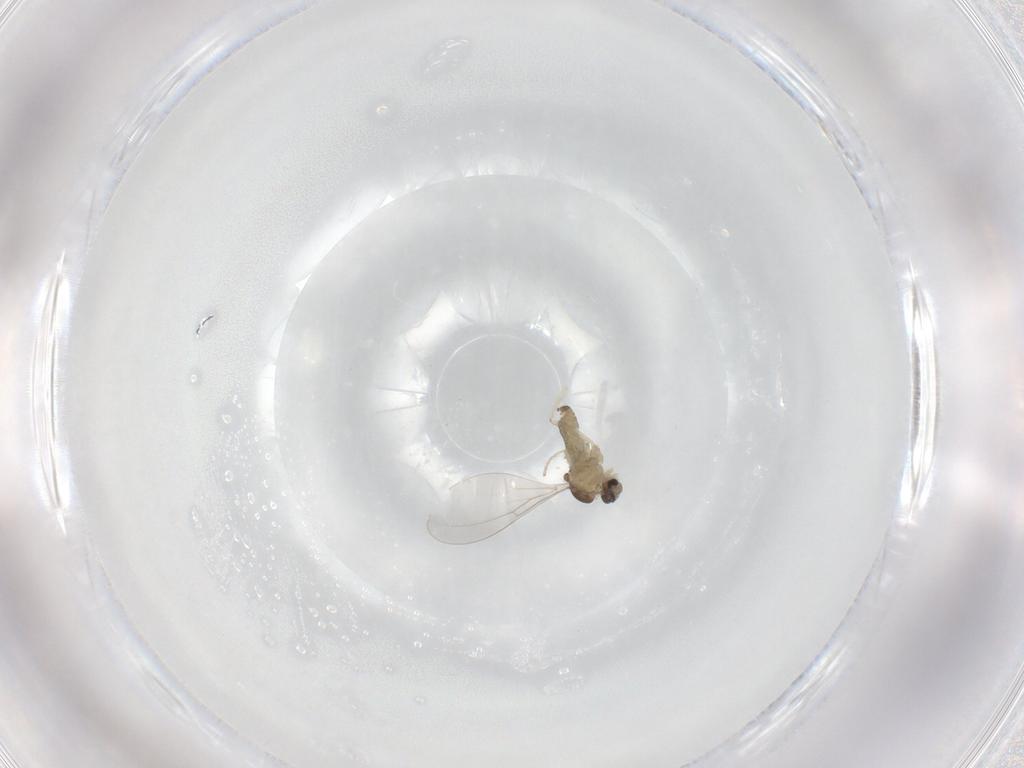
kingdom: Animalia
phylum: Arthropoda
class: Insecta
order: Diptera
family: Cecidomyiidae
